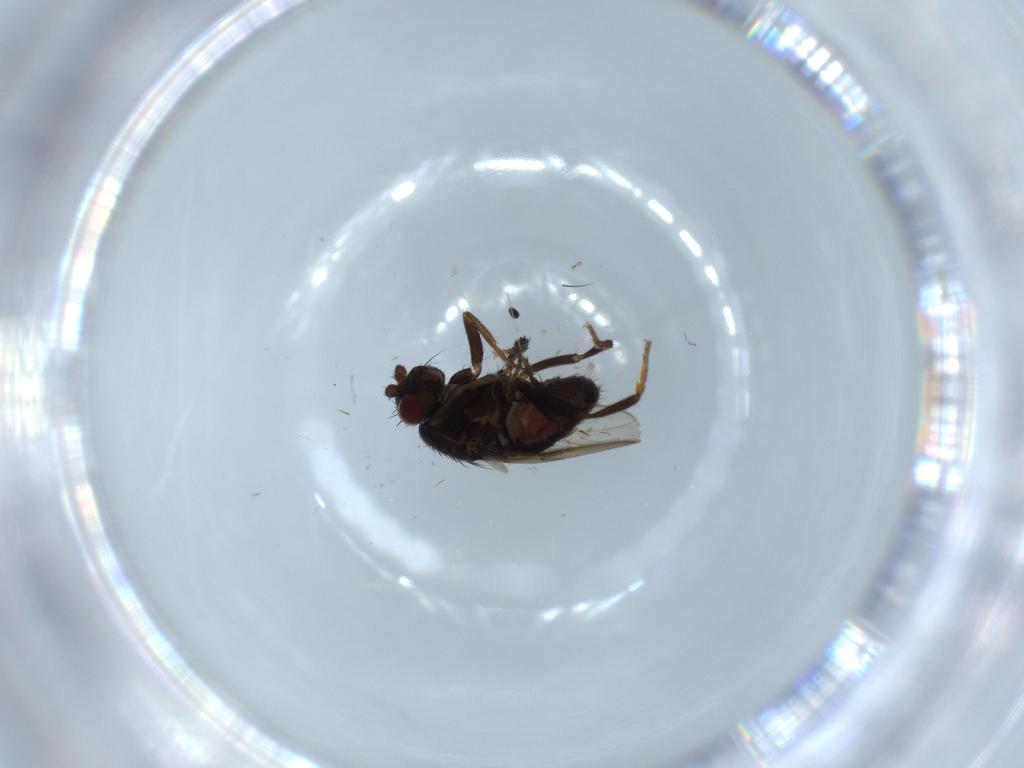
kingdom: Animalia
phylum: Arthropoda
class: Insecta
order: Diptera
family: Sphaeroceridae
